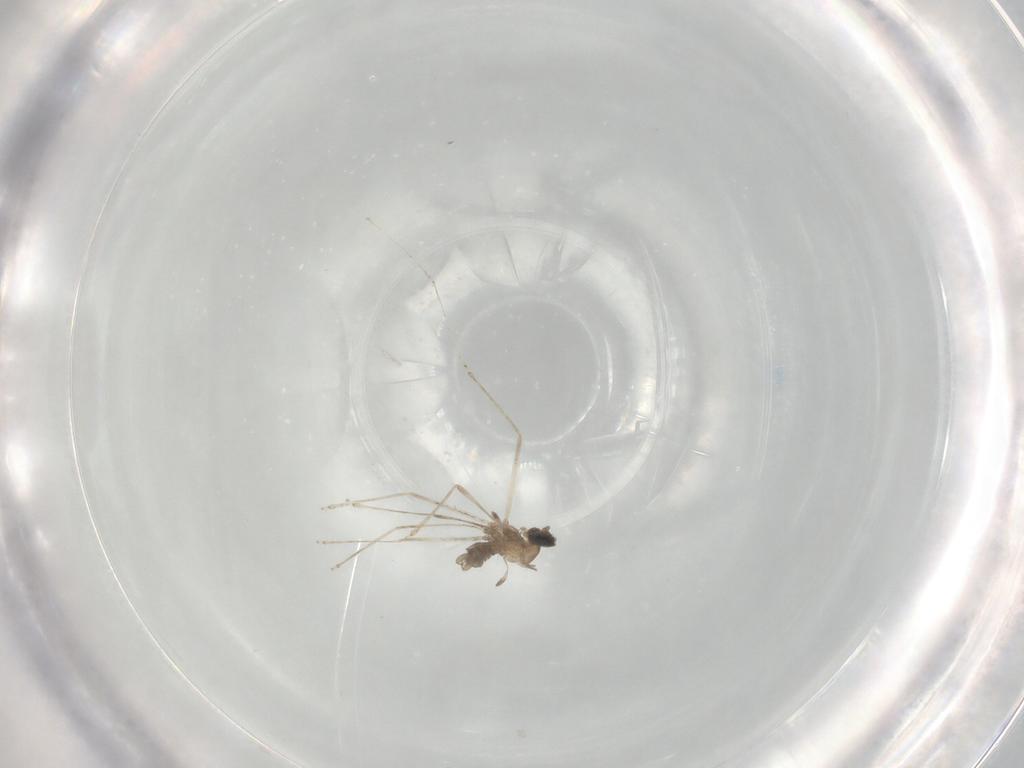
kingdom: Animalia
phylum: Arthropoda
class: Insecta
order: Diptera
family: Cecidomyiidae
